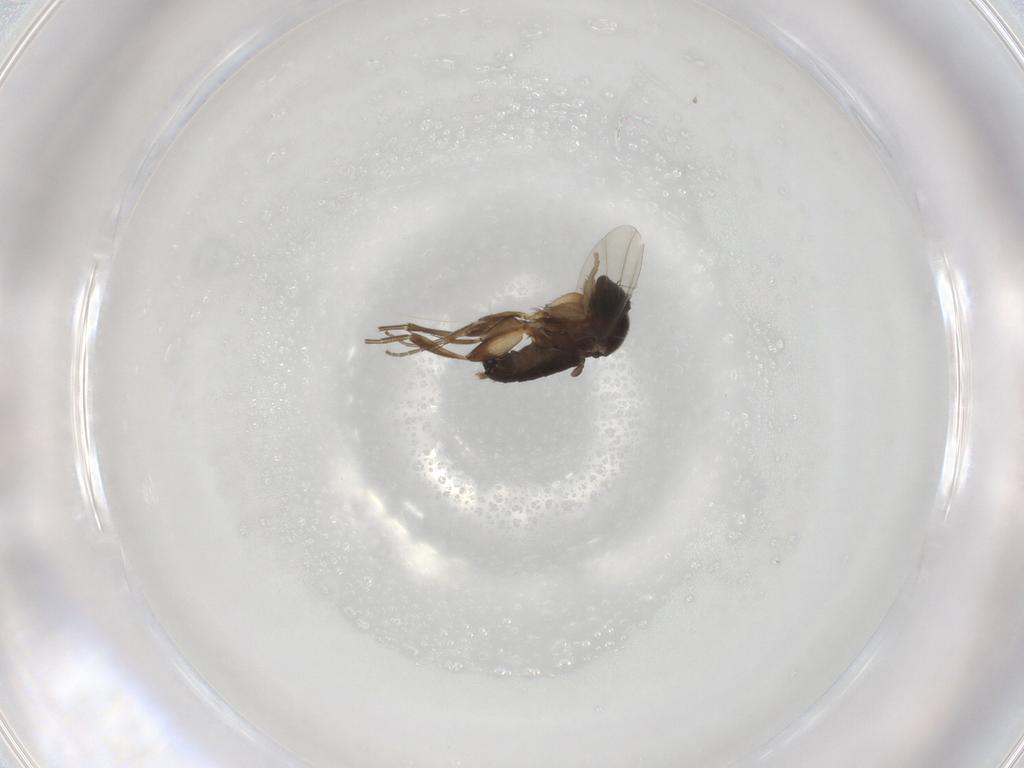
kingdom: Animalia
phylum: Arthropoda
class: Insecta
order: Diptera
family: Phoridae
